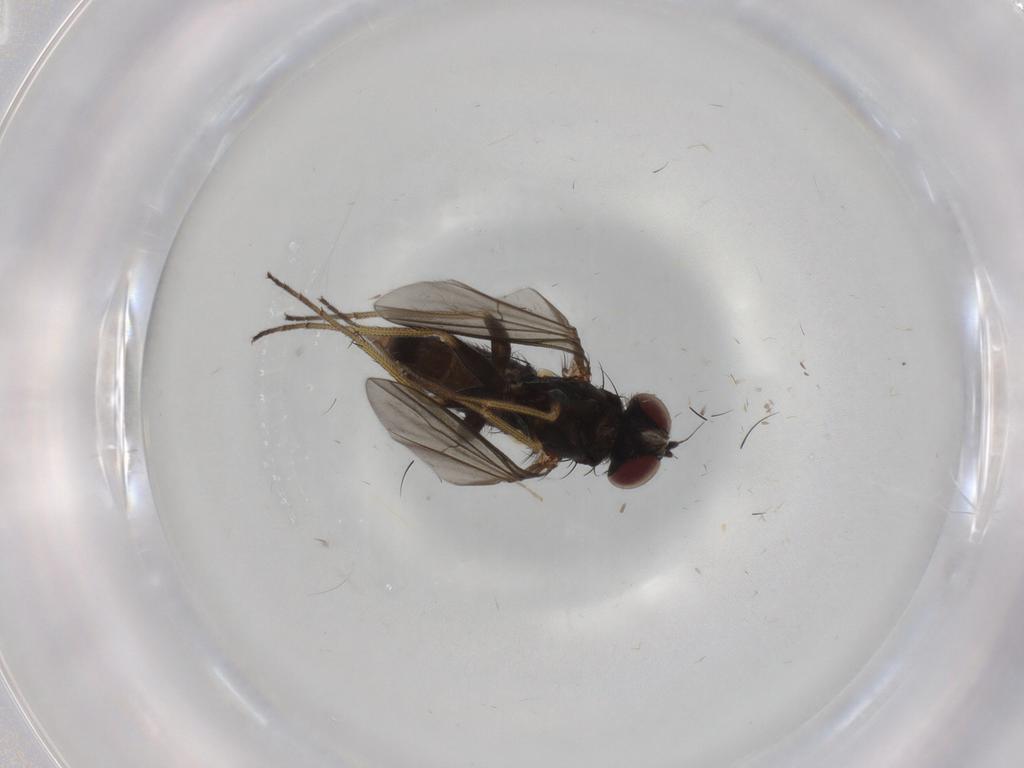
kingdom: Animalia
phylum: Arthropoda
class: Insecta
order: Diptera
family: Dolichopodidae
